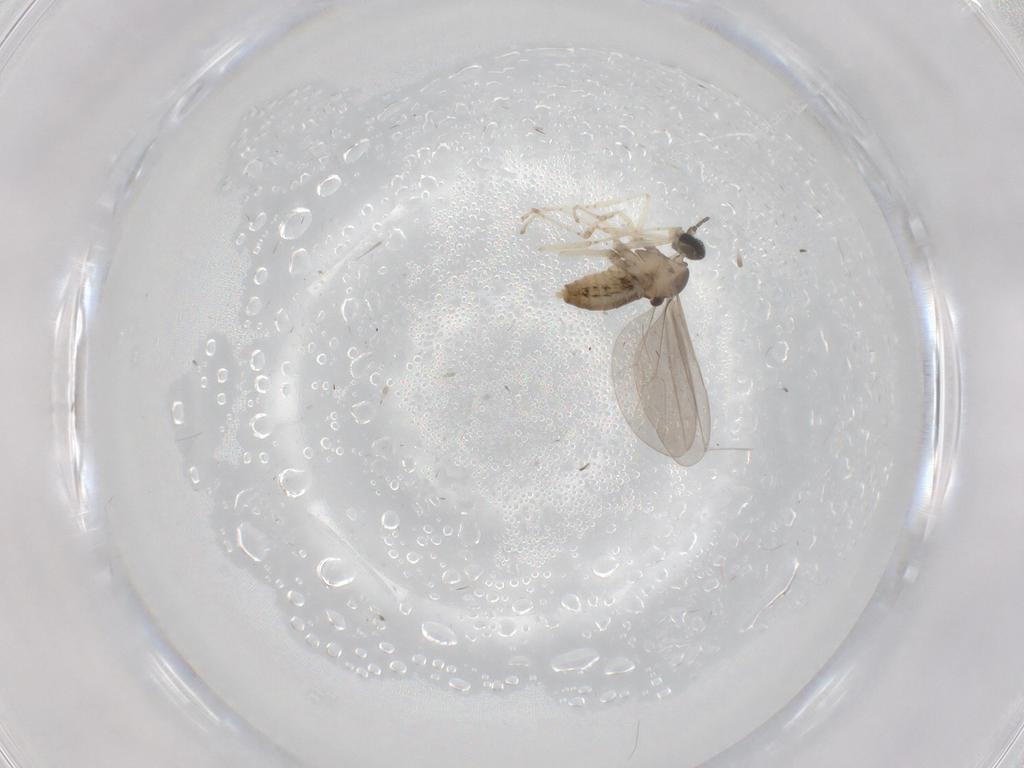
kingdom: Animalia
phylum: Arthropoda
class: Insecta
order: Diptera
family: Cecidomyiidae
